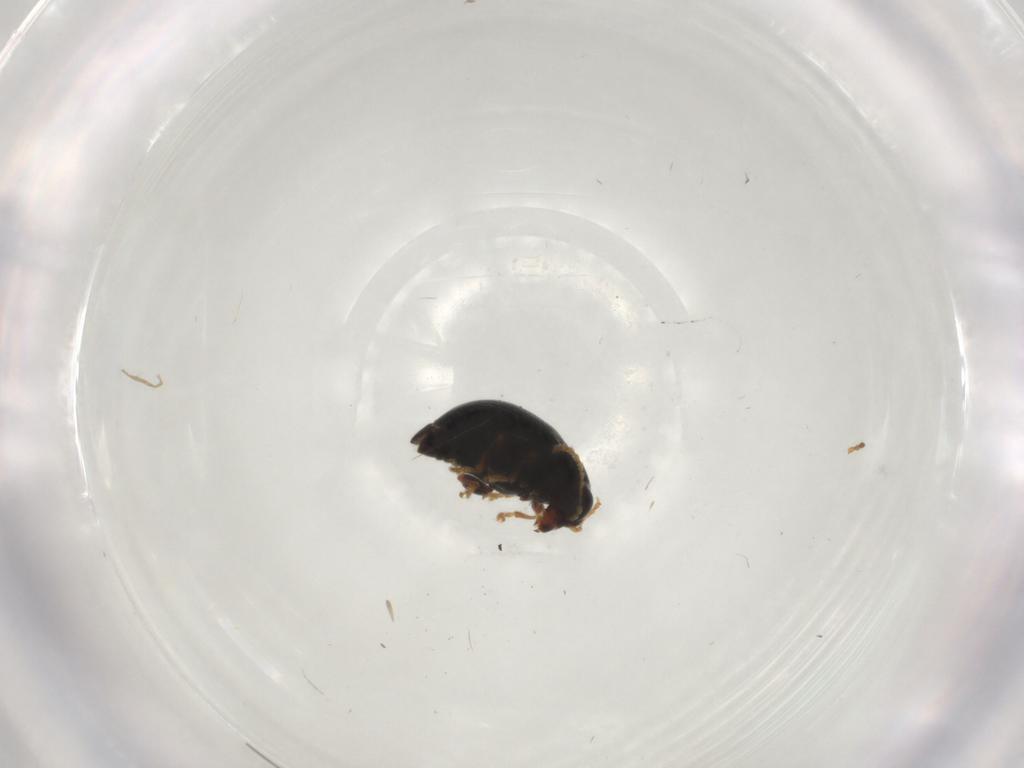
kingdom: Animalia
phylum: Arthropoda
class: Insecta
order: Coleoptera
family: Chrysomelidae
